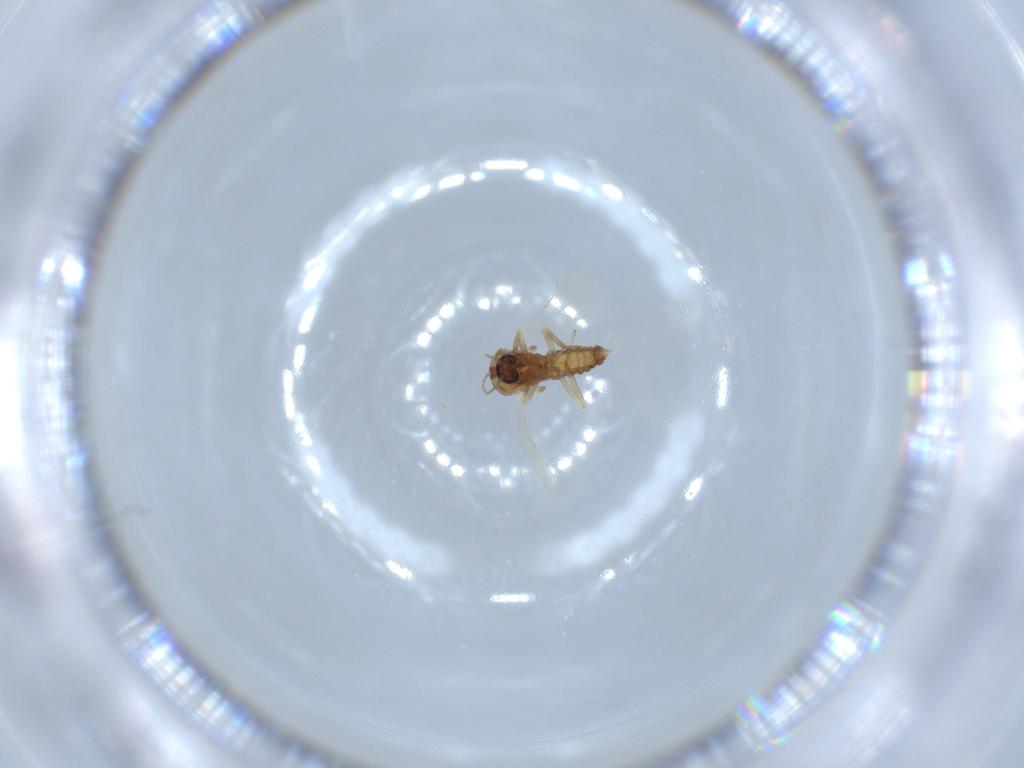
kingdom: Animalia
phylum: Arthropoda
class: Insecta
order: Diptera
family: Ceratopogonidae
